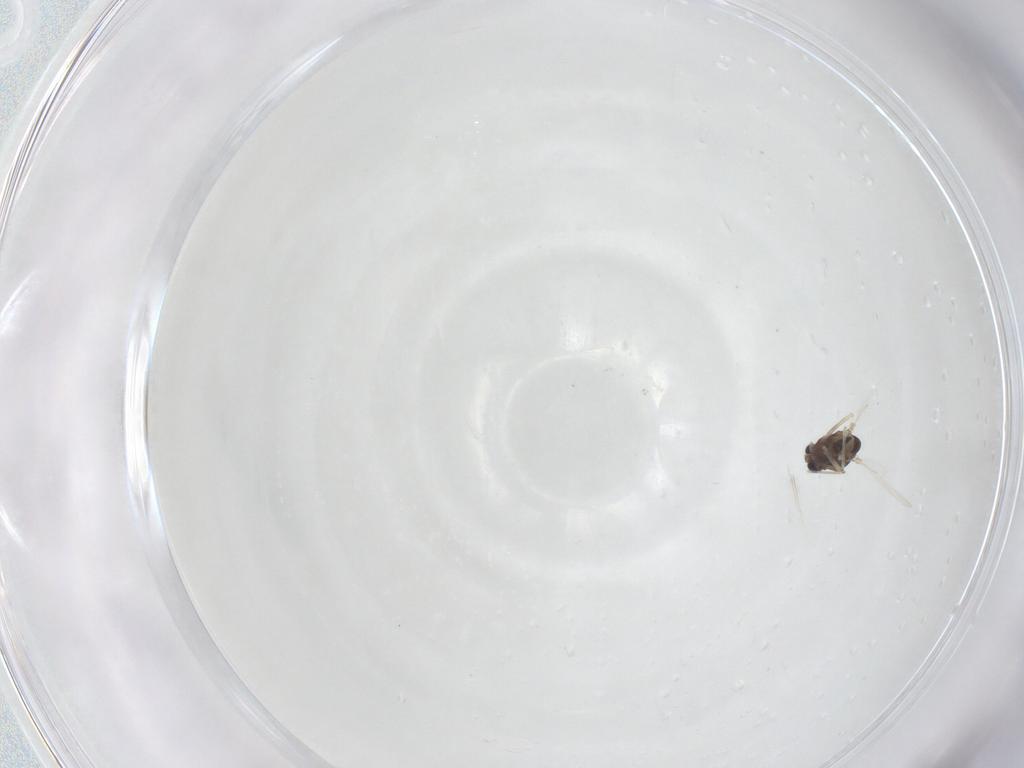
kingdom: Animalia
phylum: Arthropoda
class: Insecta
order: Diptera
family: Chironomidae
